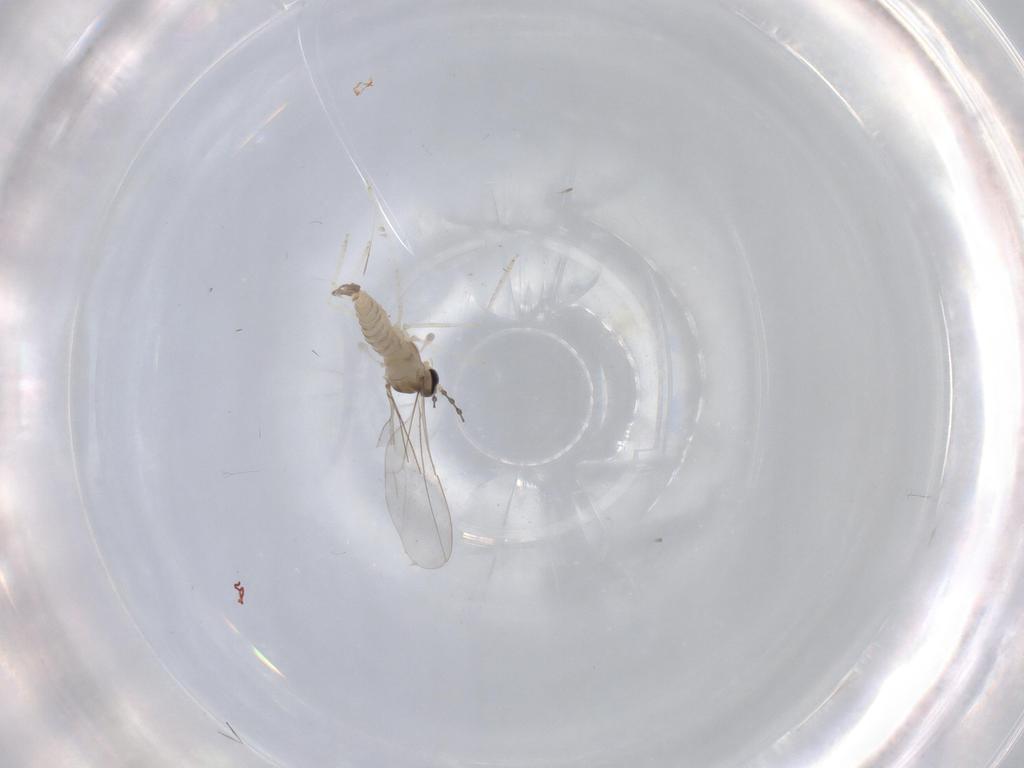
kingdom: Animalia
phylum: Arthropoda
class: Insecta
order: Diptera
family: Cecidomyiidae
